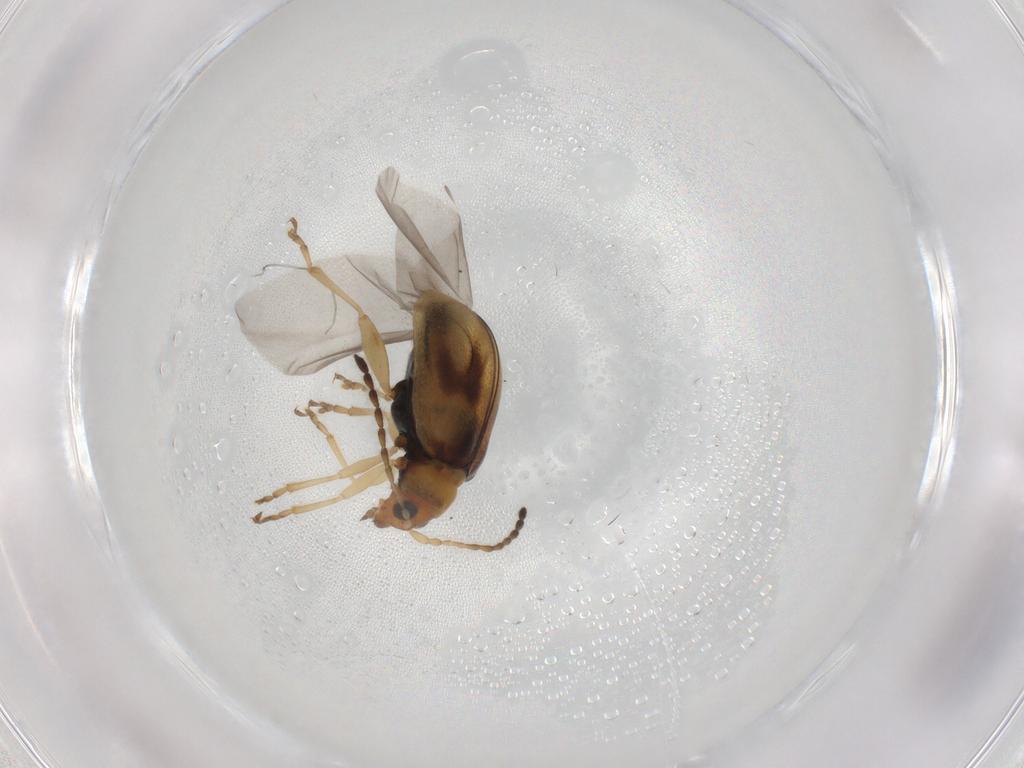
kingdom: Animalia
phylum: Arthropoda
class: Insecta
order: Coleoptera
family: Chrysomelidae
